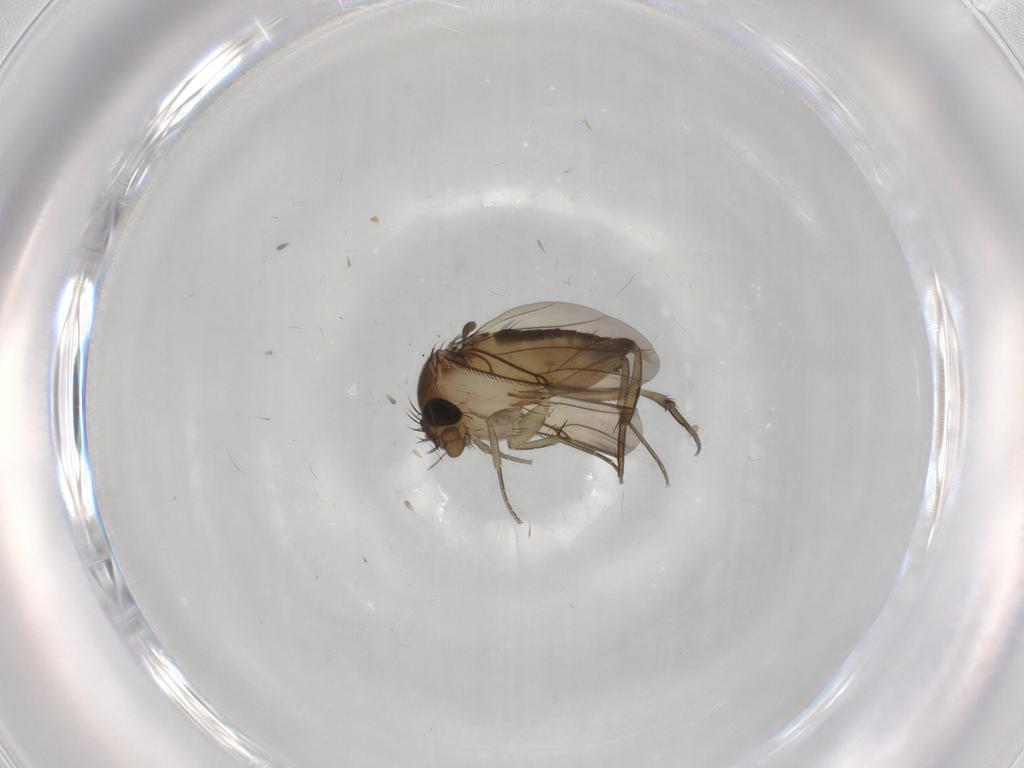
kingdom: Animalia
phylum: Arthropoda
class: Insecta
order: Diptera
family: Phoridae
